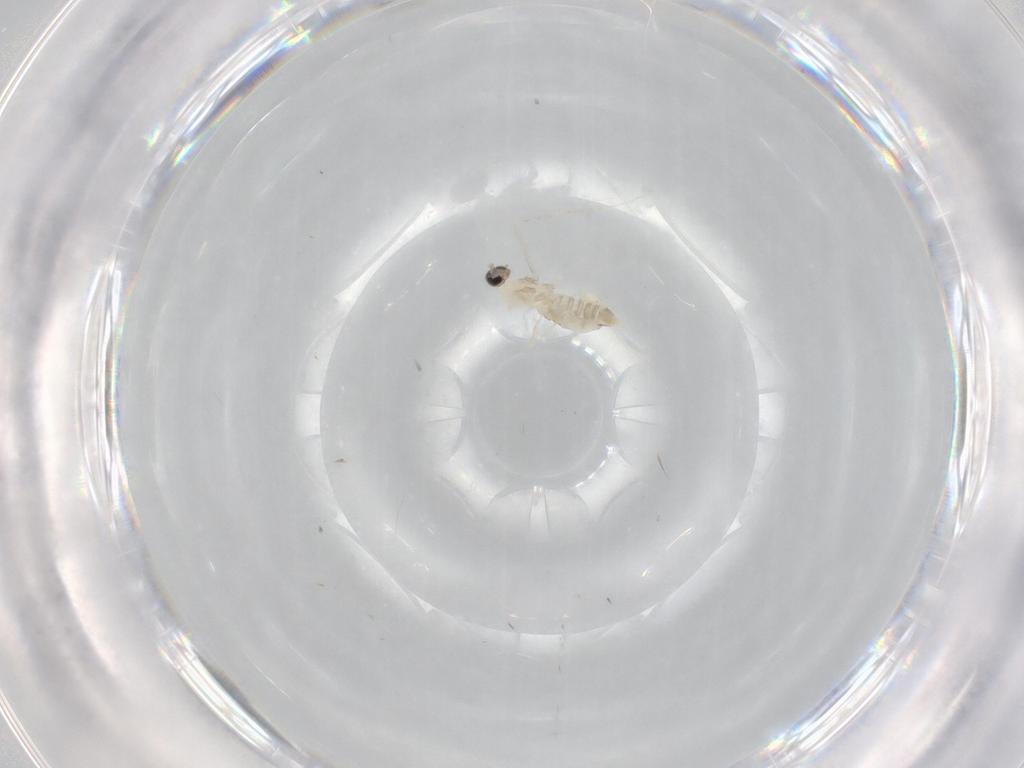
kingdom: Animalia
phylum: Arthropoda
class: Insecta
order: Diptera
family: Cecidomyiidae
